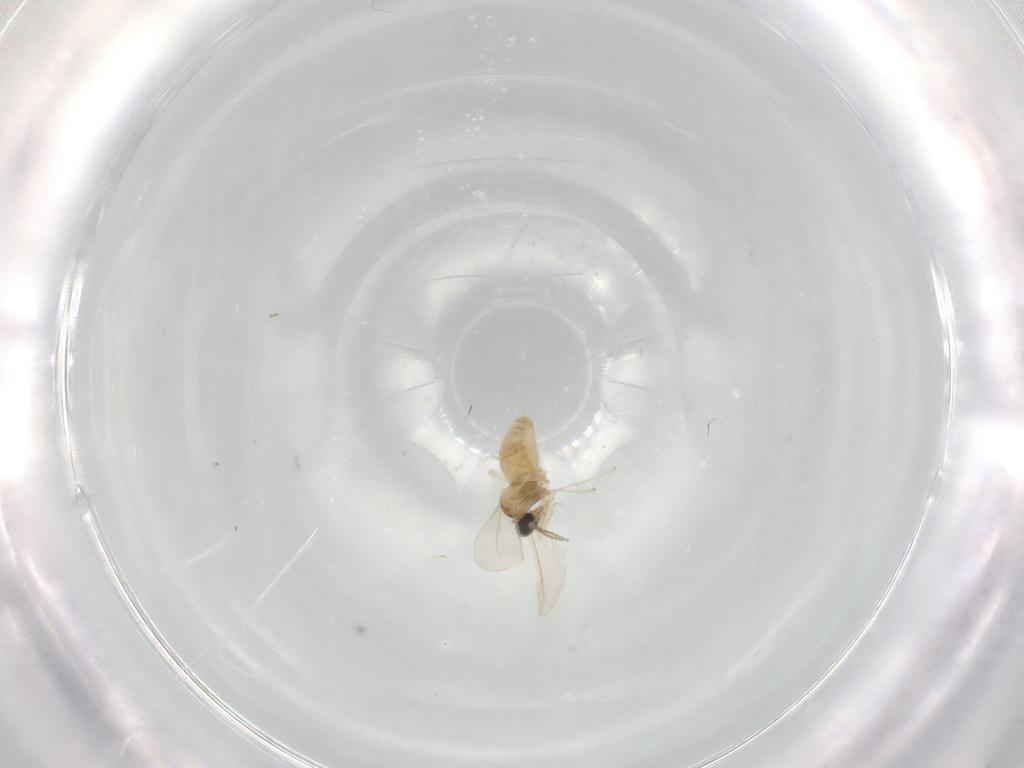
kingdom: Animalia
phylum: Arthropoda
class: Insecta
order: Diptera
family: Cecidomyiidae
